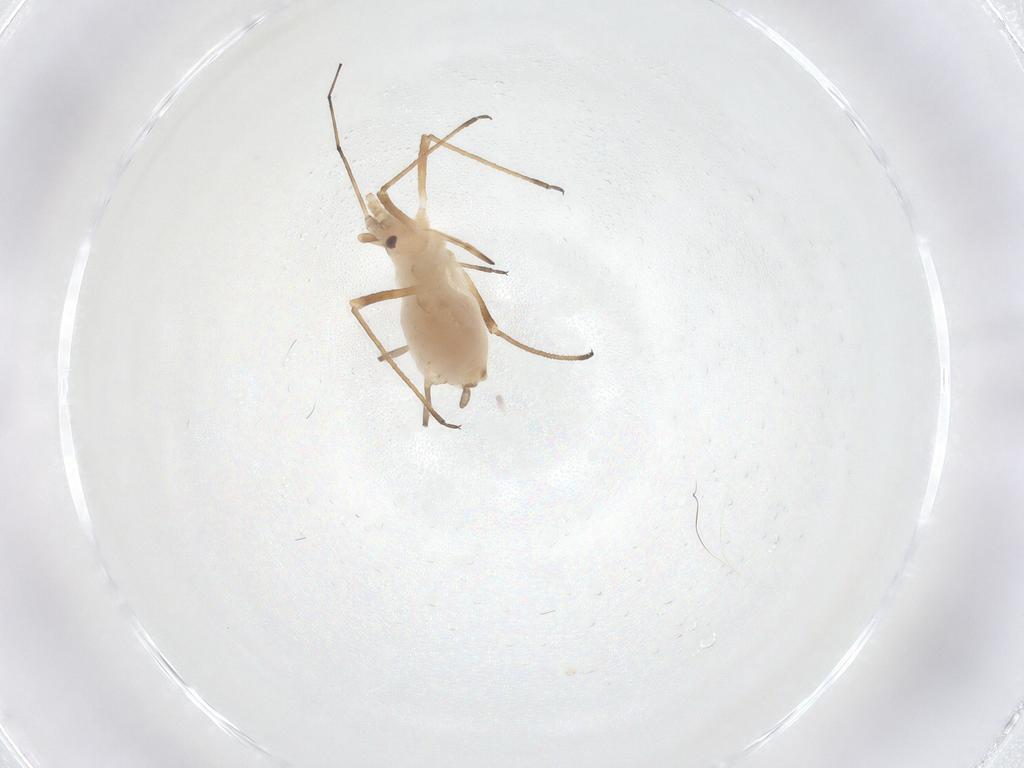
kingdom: Animalia
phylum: Arthropoda
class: Insecta
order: Hemiptera
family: Aphididae
